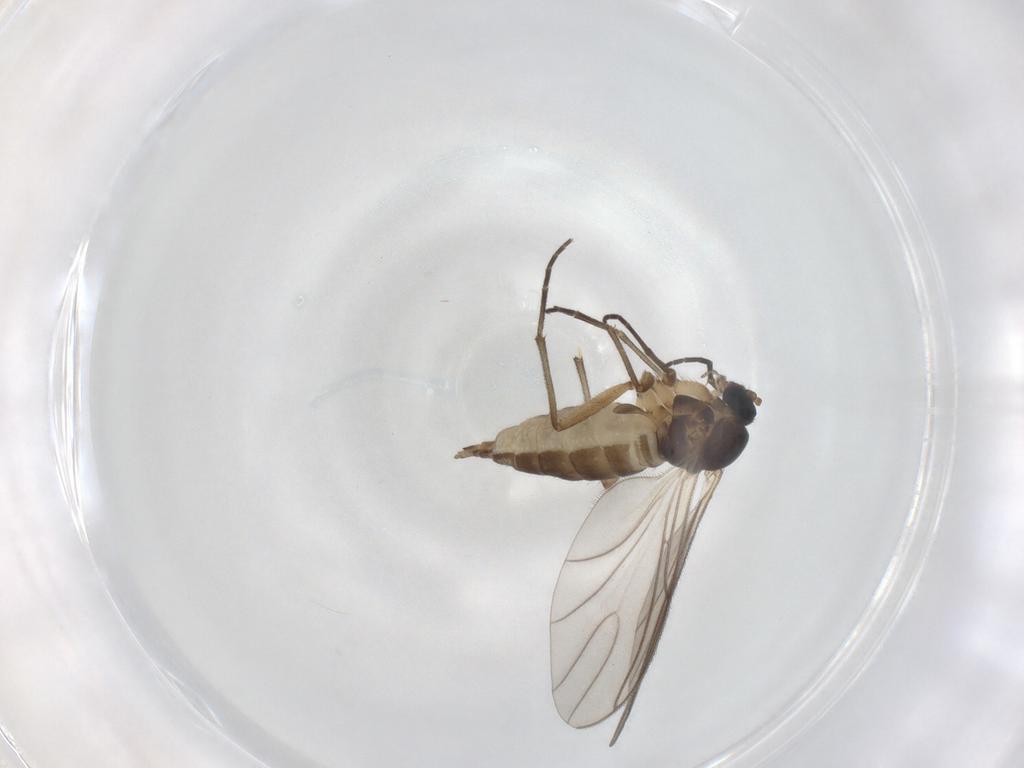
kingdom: Animalia
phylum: Arthropoda
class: Insecta
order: Diptera
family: Sciaridae
